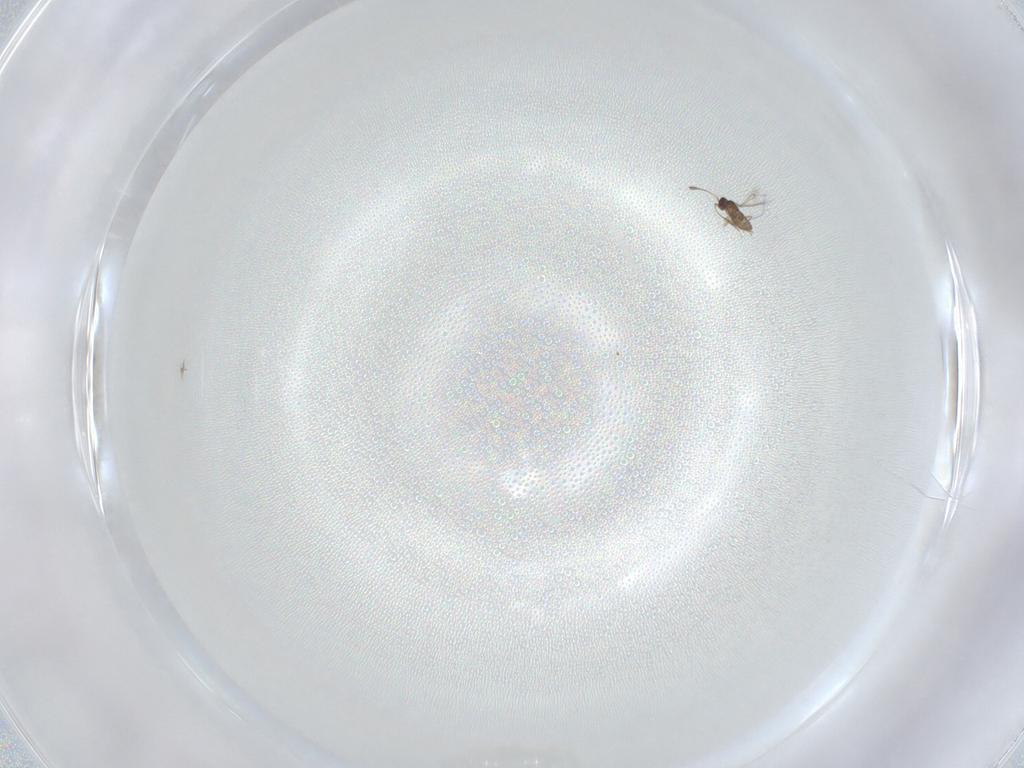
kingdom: Animalia
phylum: Arthropoda
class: Insecta
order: Hymenoptera
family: Mymaridae
